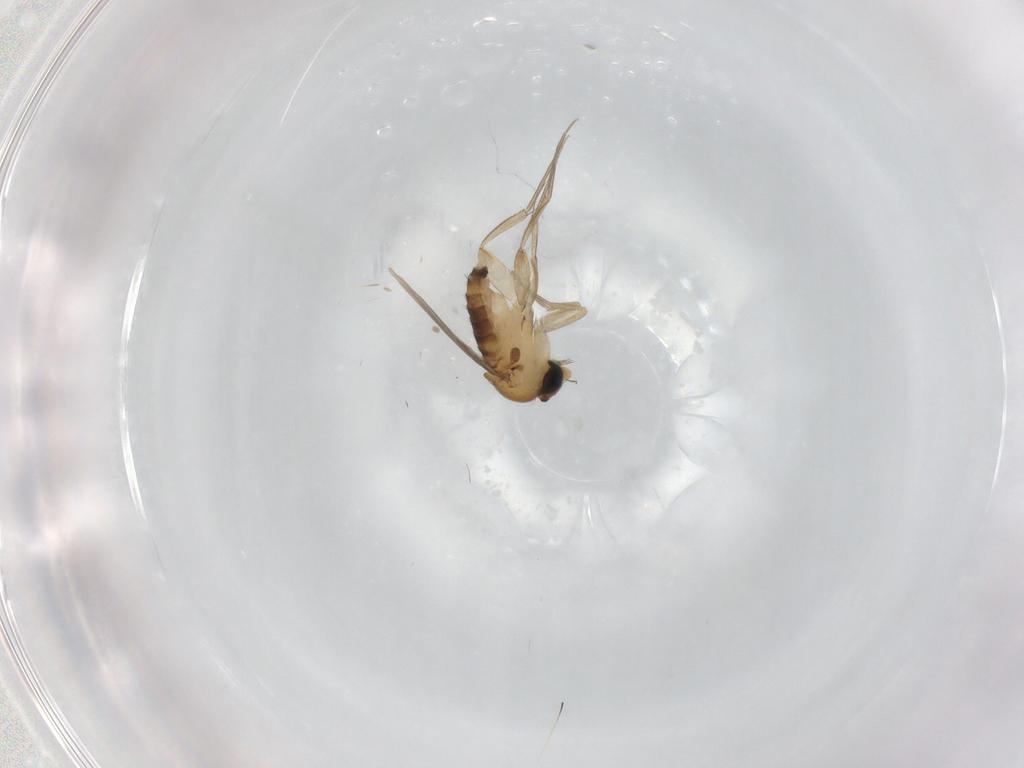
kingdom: Animalia
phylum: Arthropoda
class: Insecta
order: Diptera
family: Phoridae
